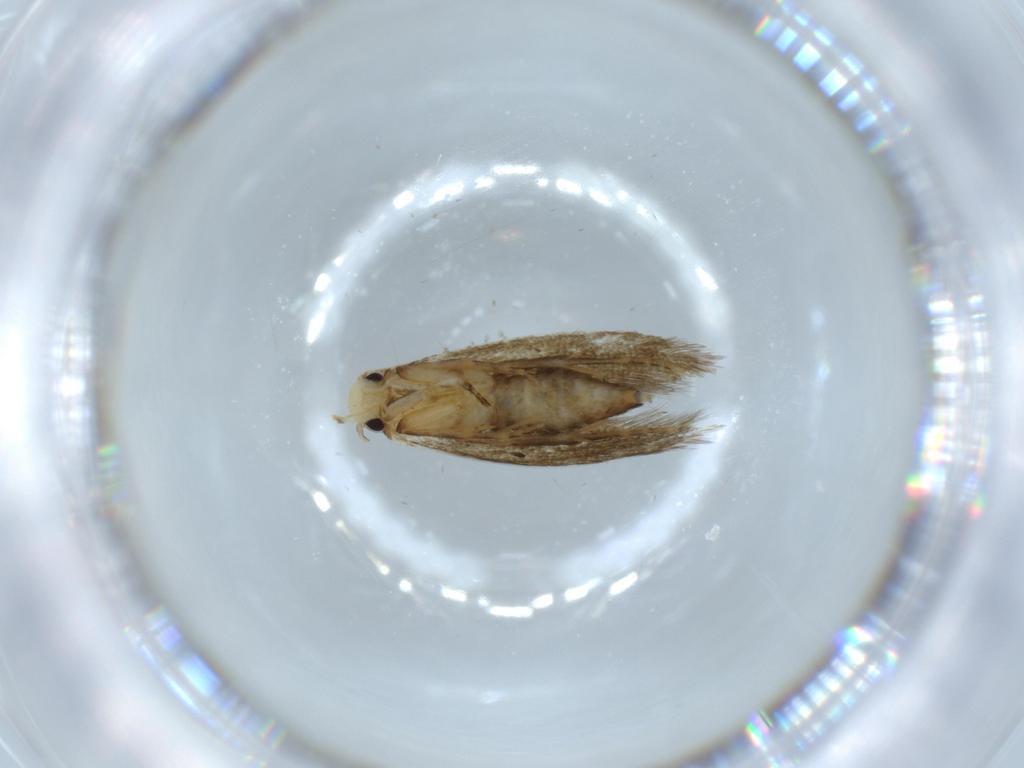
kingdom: Animalia
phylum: Arthropoda
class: Insecta
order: Lepidoptera
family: Tineidae
